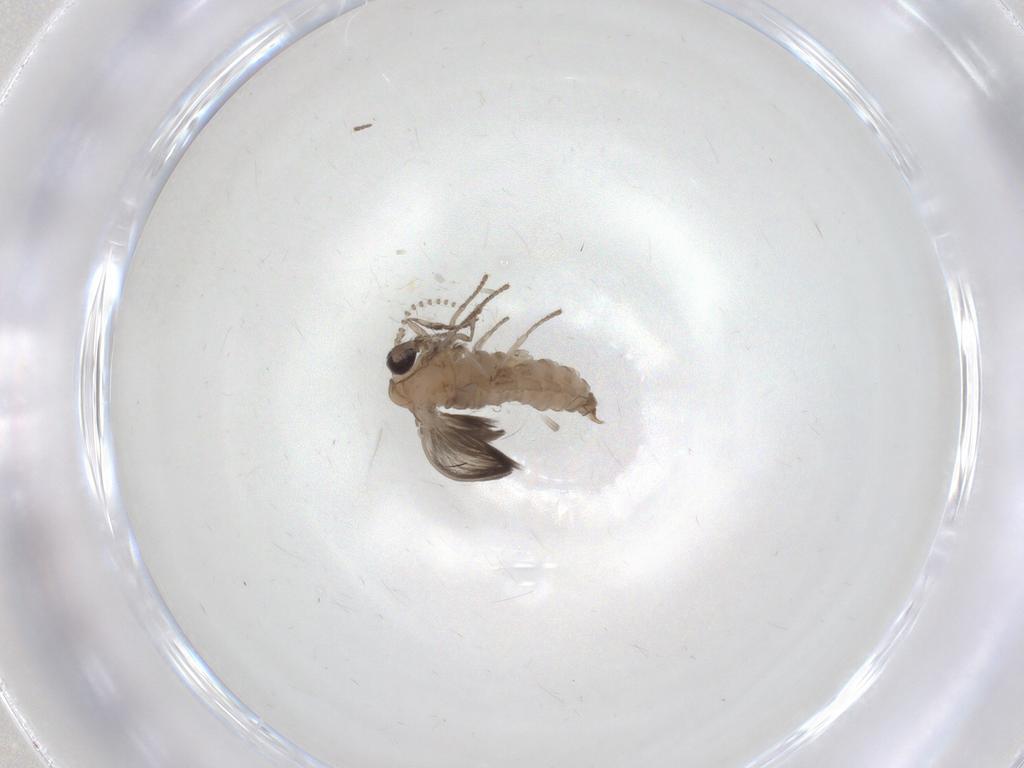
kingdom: Animalia
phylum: Arthropoda
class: Insecta
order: Diptera
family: Psychodidae
